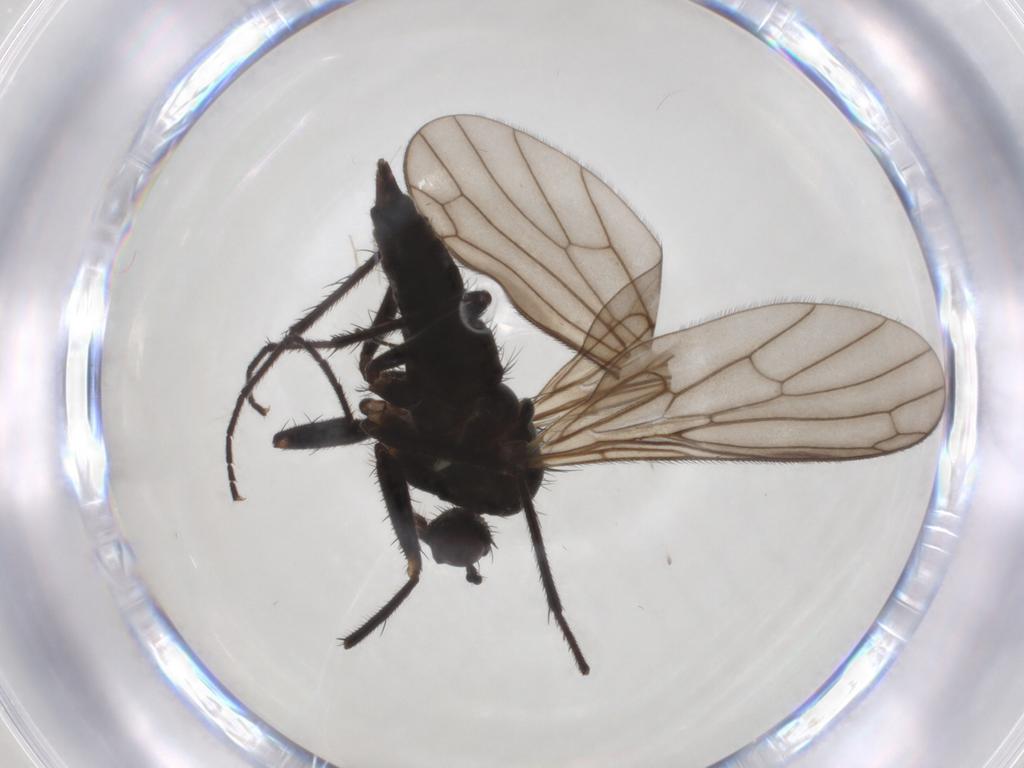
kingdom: Animalia
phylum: Arthropoda
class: Insecta
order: Diptera
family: Empididae
